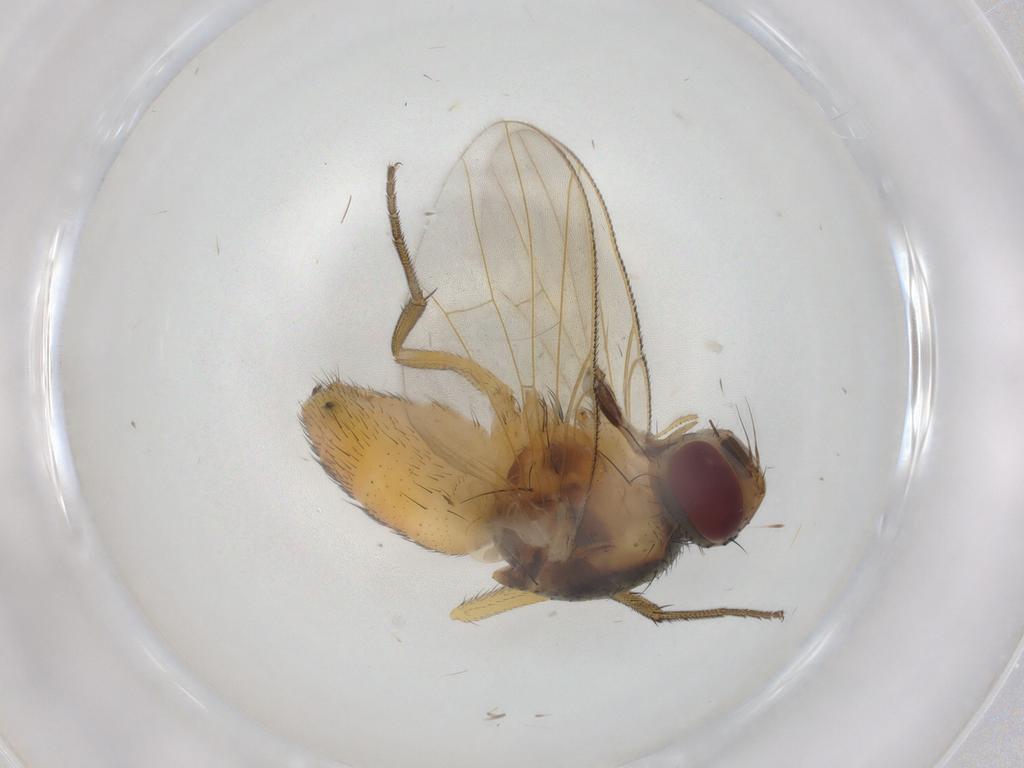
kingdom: Animalia
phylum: Arthropoda
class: Insecta
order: Diptera
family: Muscidae
